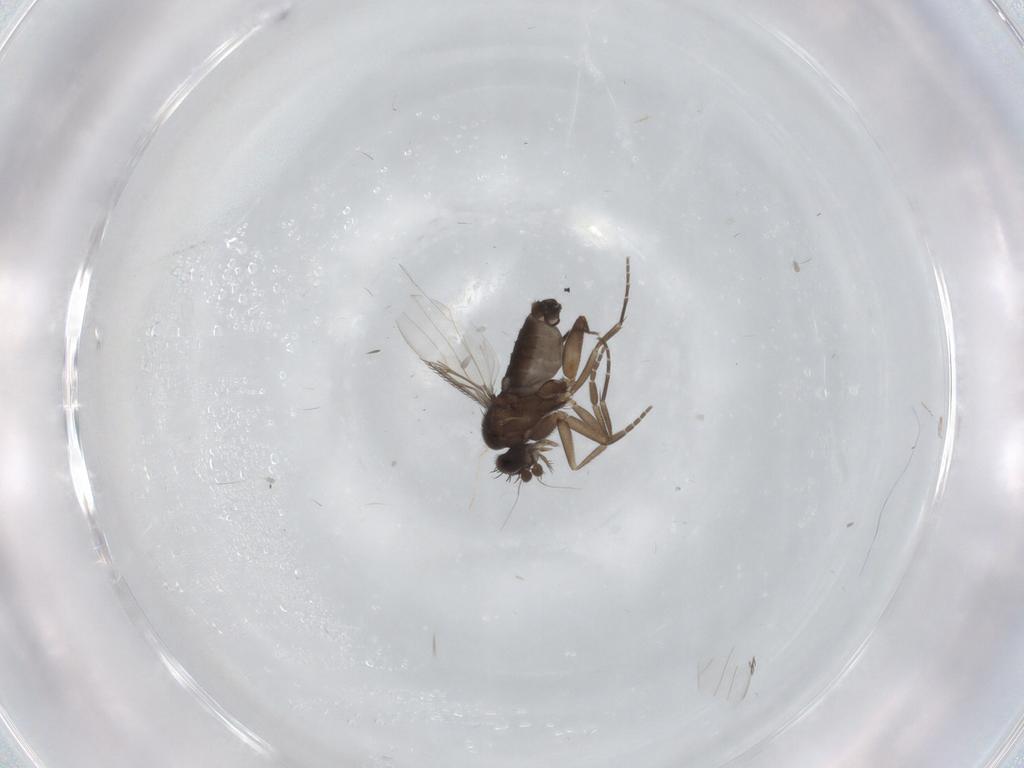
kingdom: Animalia
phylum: Arthropoda
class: Insecta
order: Diptera
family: Phoridae
